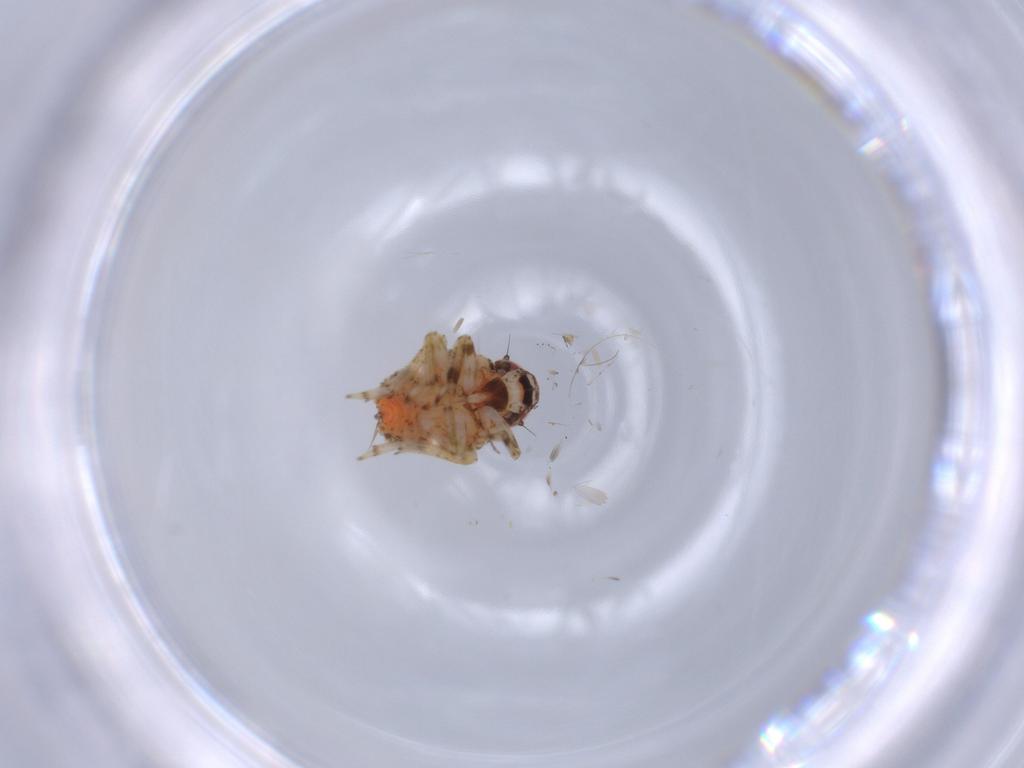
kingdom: Animalia
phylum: Arthropoda
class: Insecta
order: Hemiptera
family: Issidae
